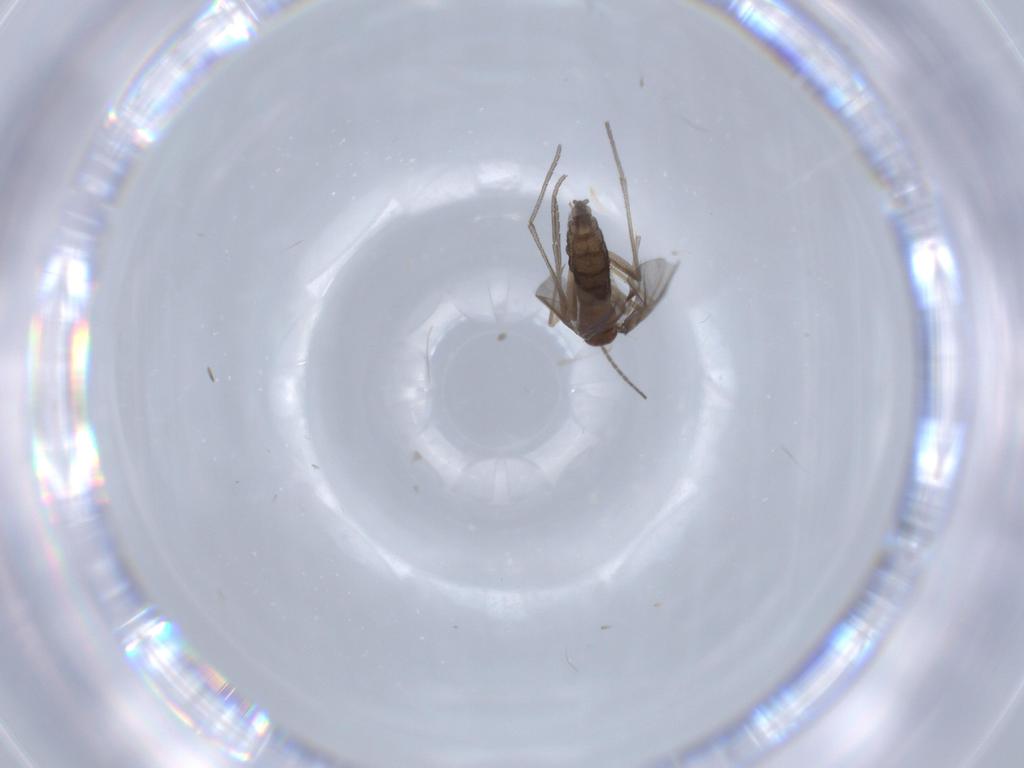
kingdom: Animalia
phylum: Arthropoda
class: Insecta
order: Diptera
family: Sciaridae
